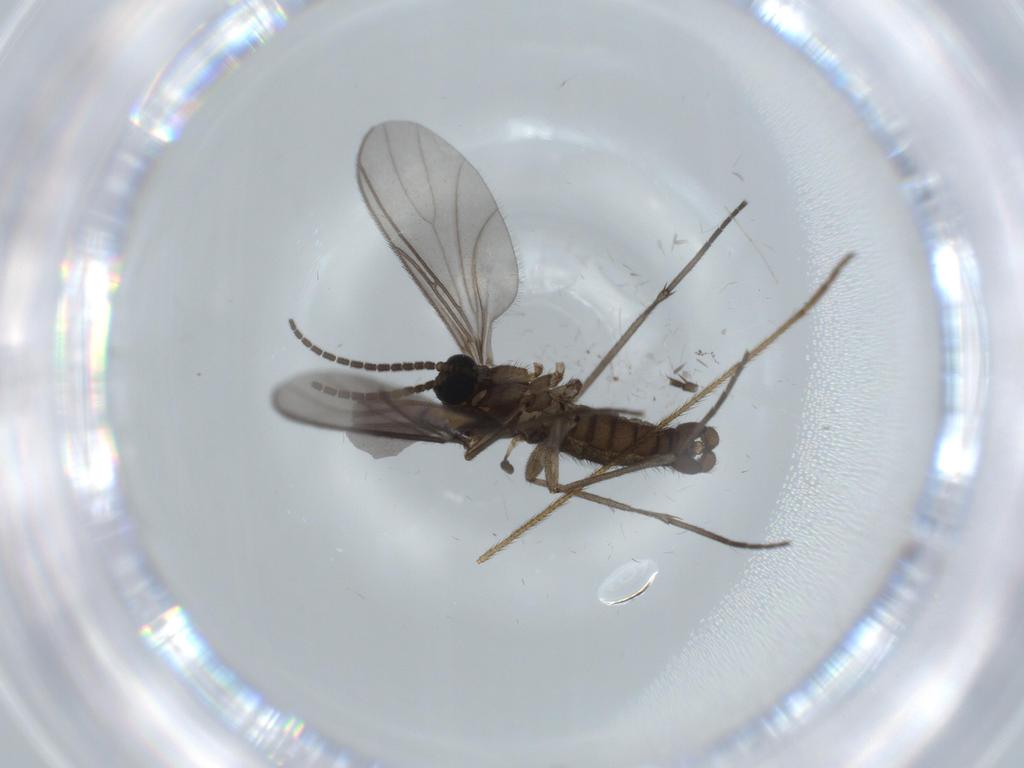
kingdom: Animalia
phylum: Arthropoda
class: Insecta
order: Diptera
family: Sciaridae
